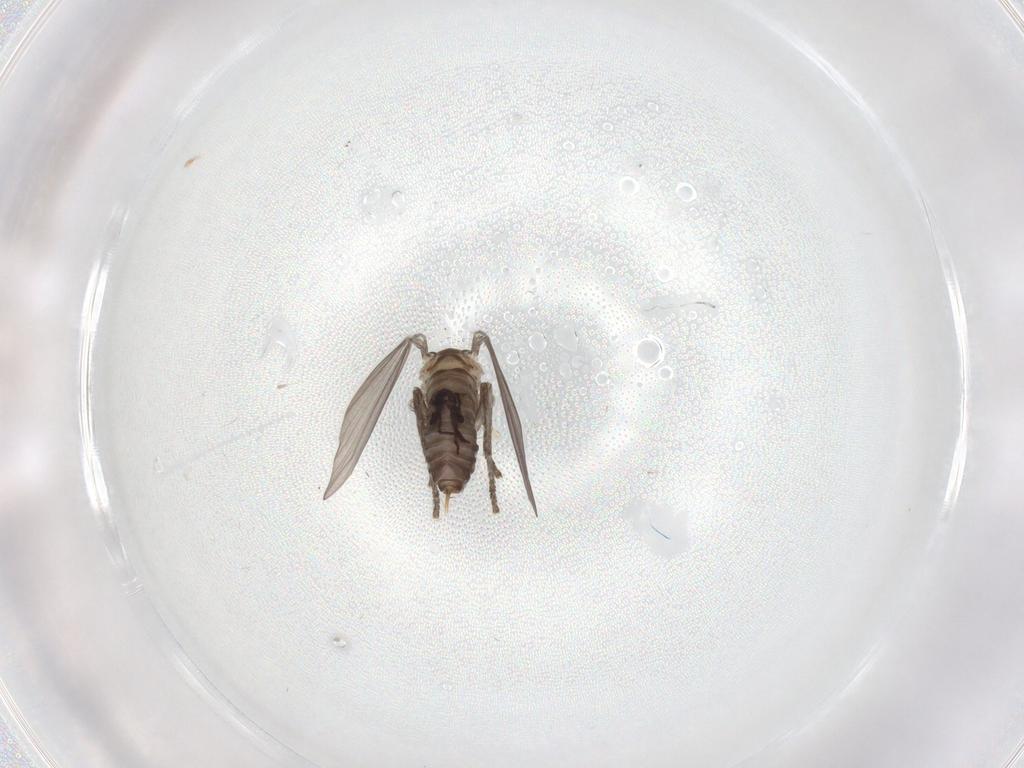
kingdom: Animalia
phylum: Arthropoda
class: Insecta
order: Diptera
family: Psychodidae
